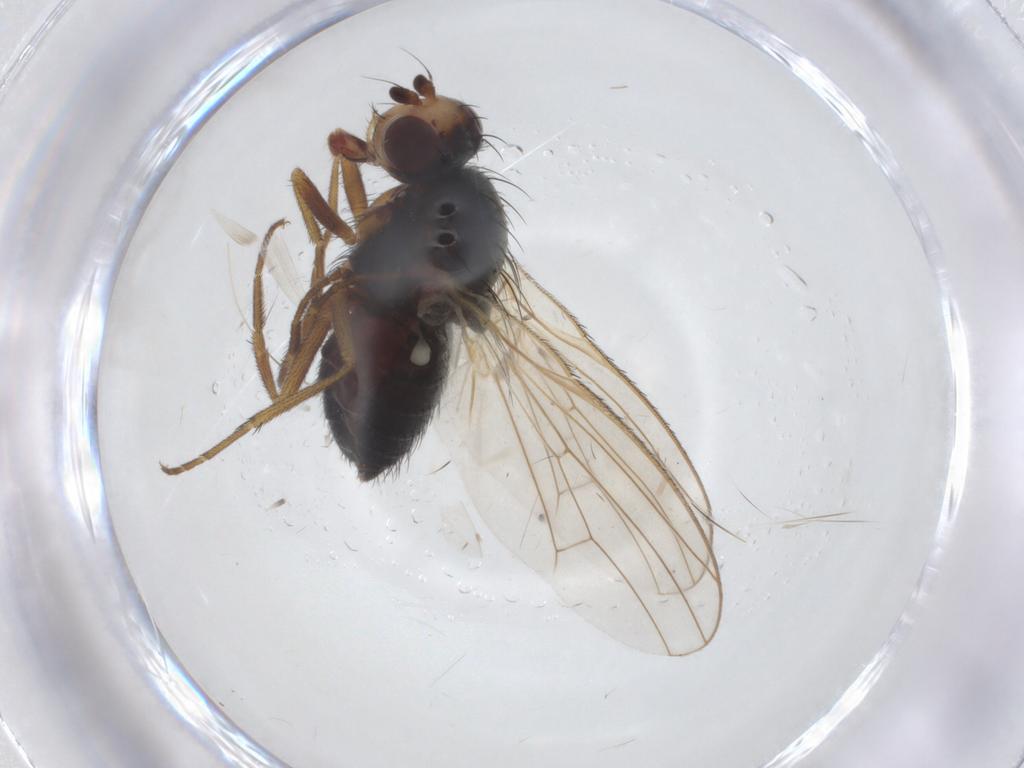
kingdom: Animalia
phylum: Arthropoda
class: Insecta
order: Diptera
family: Heleomyzidae
